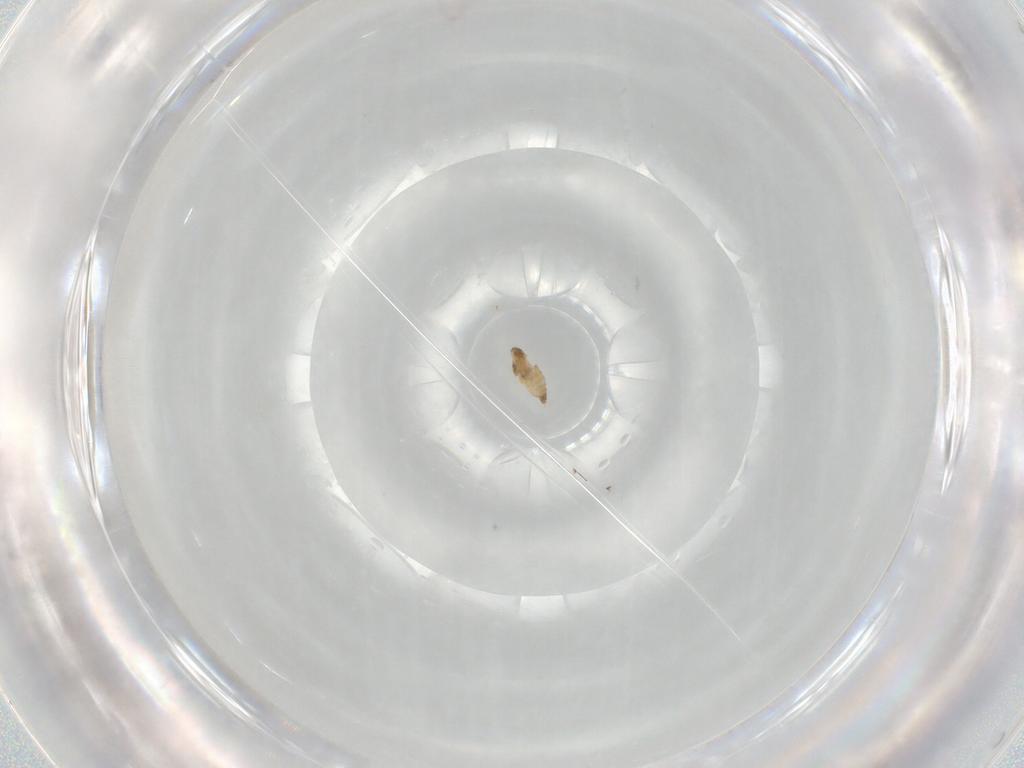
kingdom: Animalia
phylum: Arthropoda
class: Insecta
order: Diptera
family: Limoniidae
